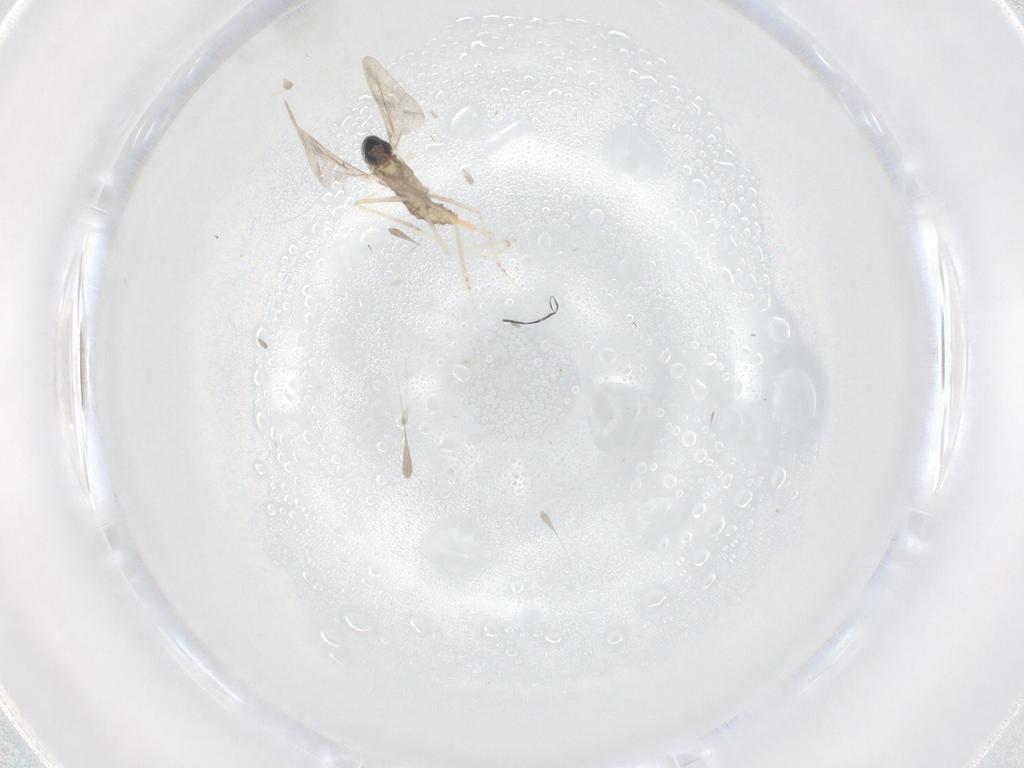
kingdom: Animalia
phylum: Arthropoda
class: Insecta
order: Diptera
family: Cecidomyiidae
